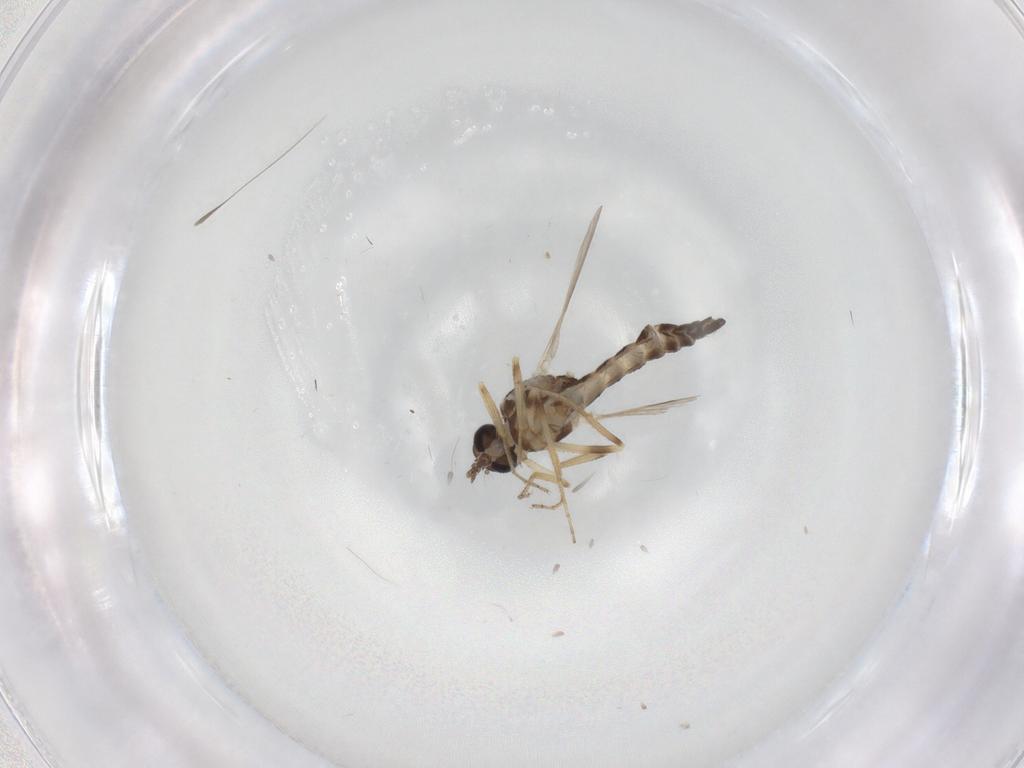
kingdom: Animalia
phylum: Arthropoda
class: Insecta
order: Diptera
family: Ceratopogonidae
